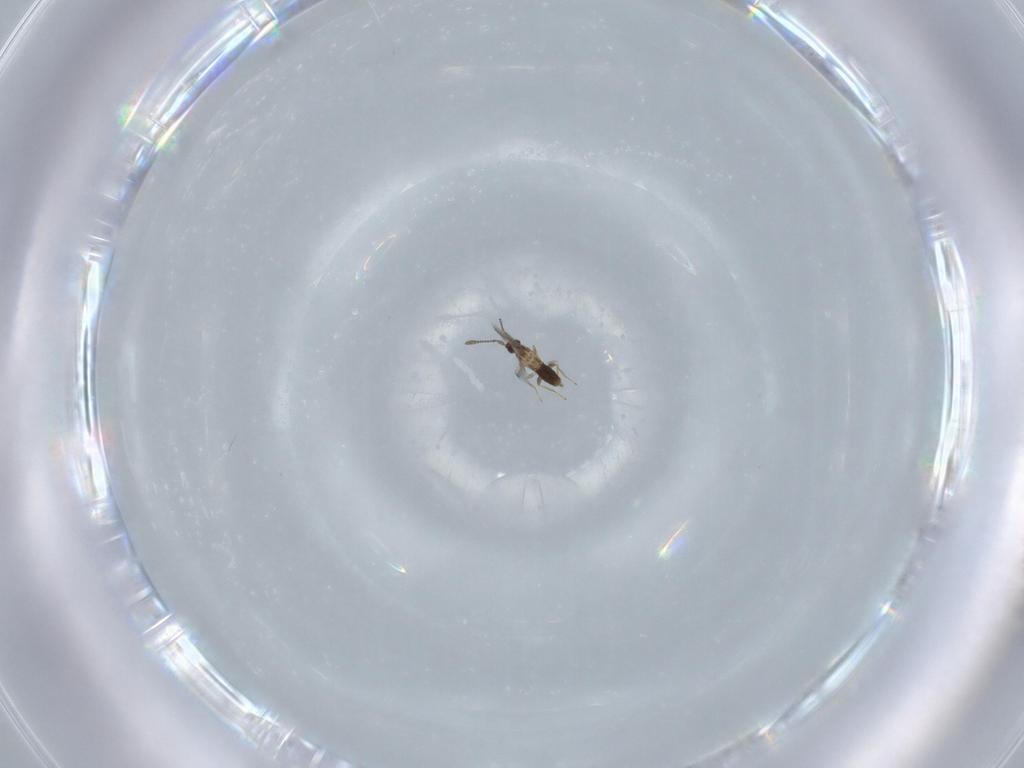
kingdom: Animalia
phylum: Arthropoda
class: Insecta
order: Hymenoptera
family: Mymaridae
